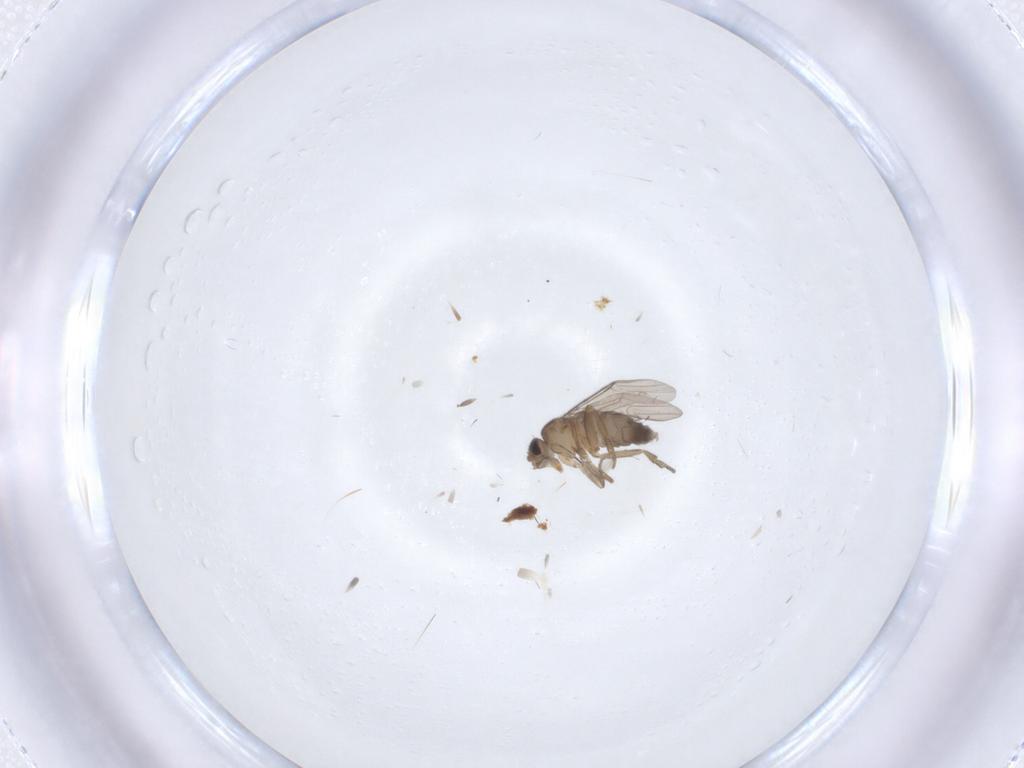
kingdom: Animalia
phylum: Arthropoda
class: Insecta
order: Diptera
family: Phoridae
